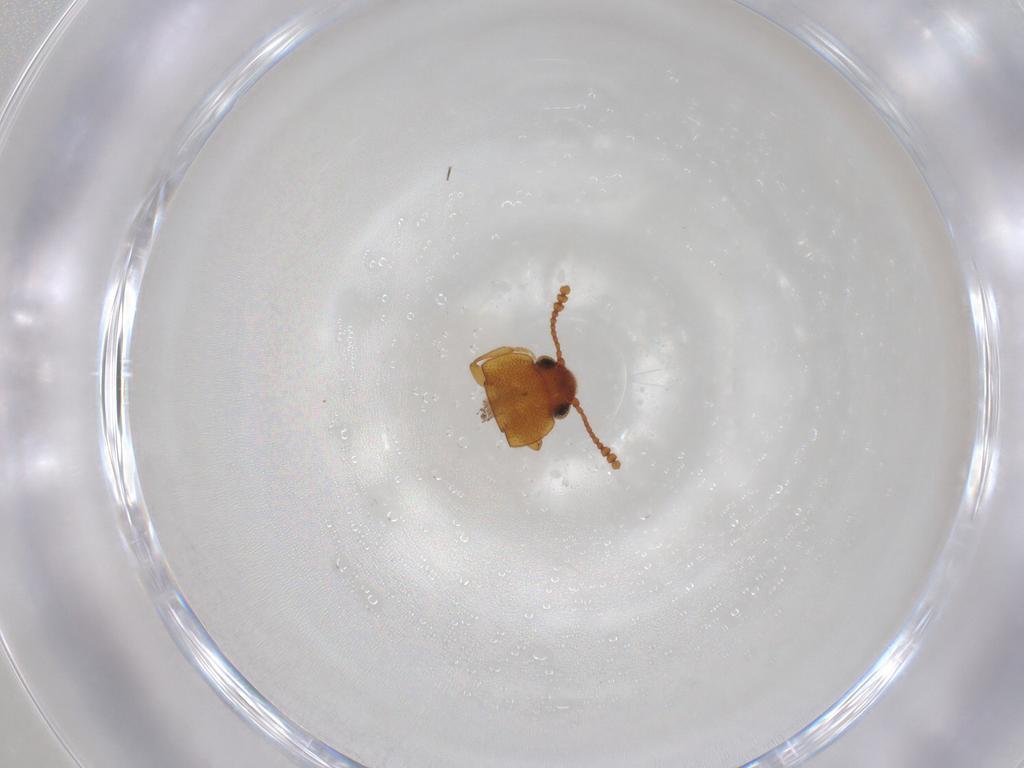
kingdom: Animalia
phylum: Arthropoda
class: Insecta
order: Coleoptera
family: Erotylidae
